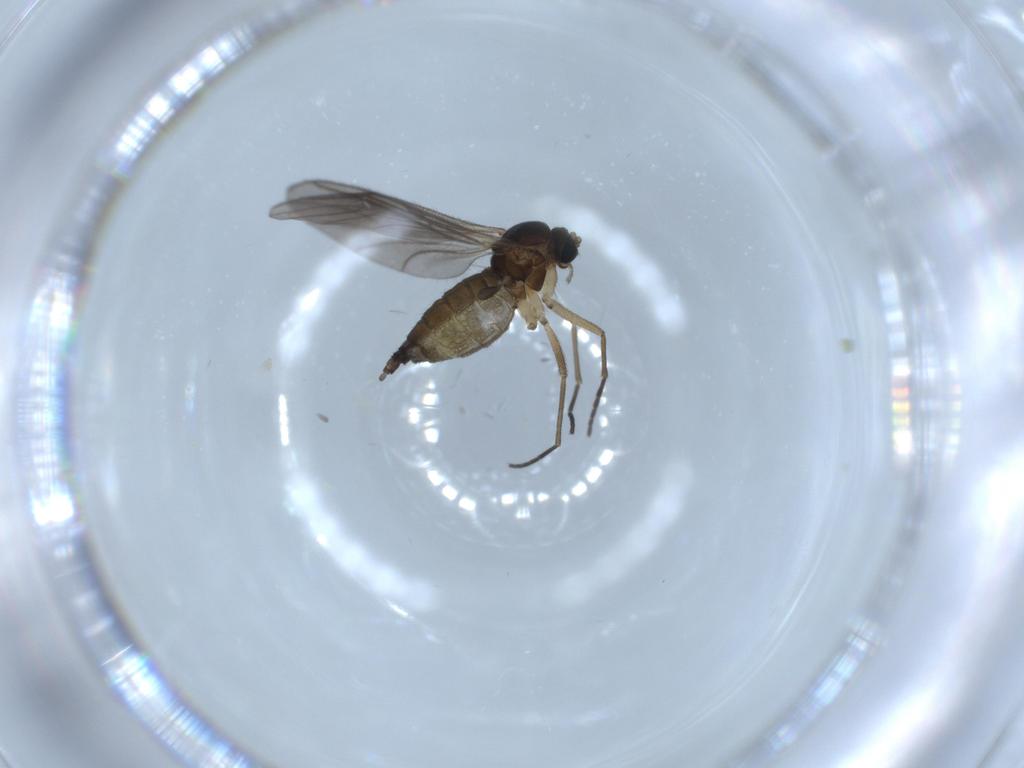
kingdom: Animalia
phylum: Arthropoda
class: Insecta
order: Diptera
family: Sciaridae
